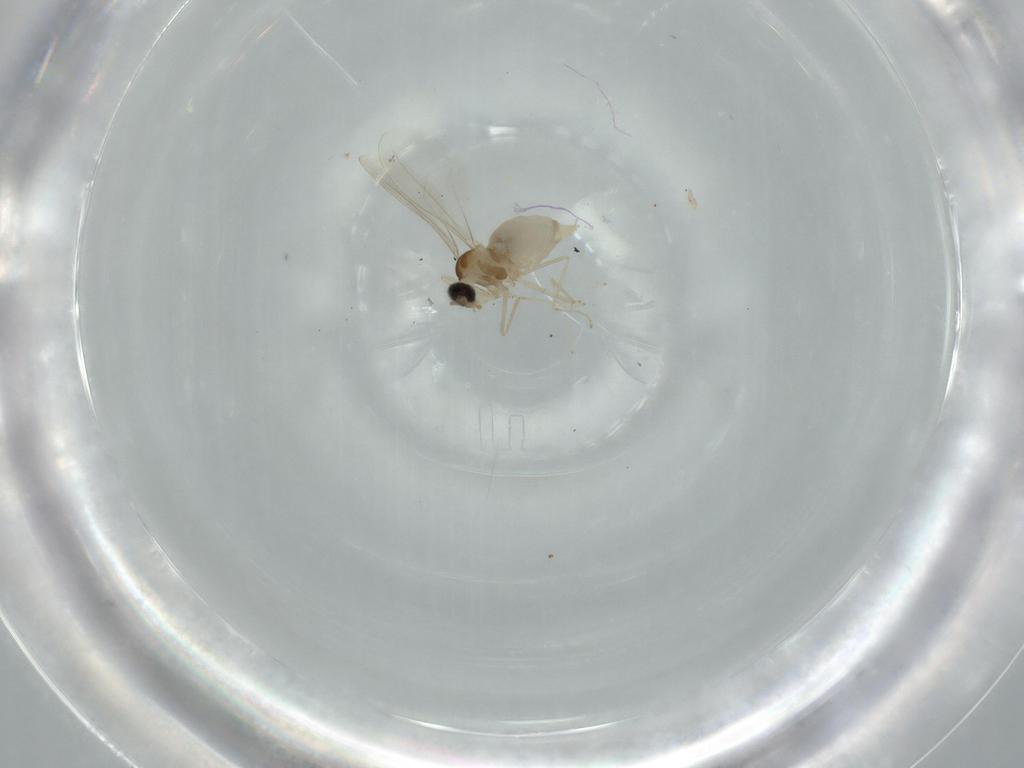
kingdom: Animalia
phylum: Arthropoda
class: Insecta
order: Diptera
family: Cecidomyiidae
